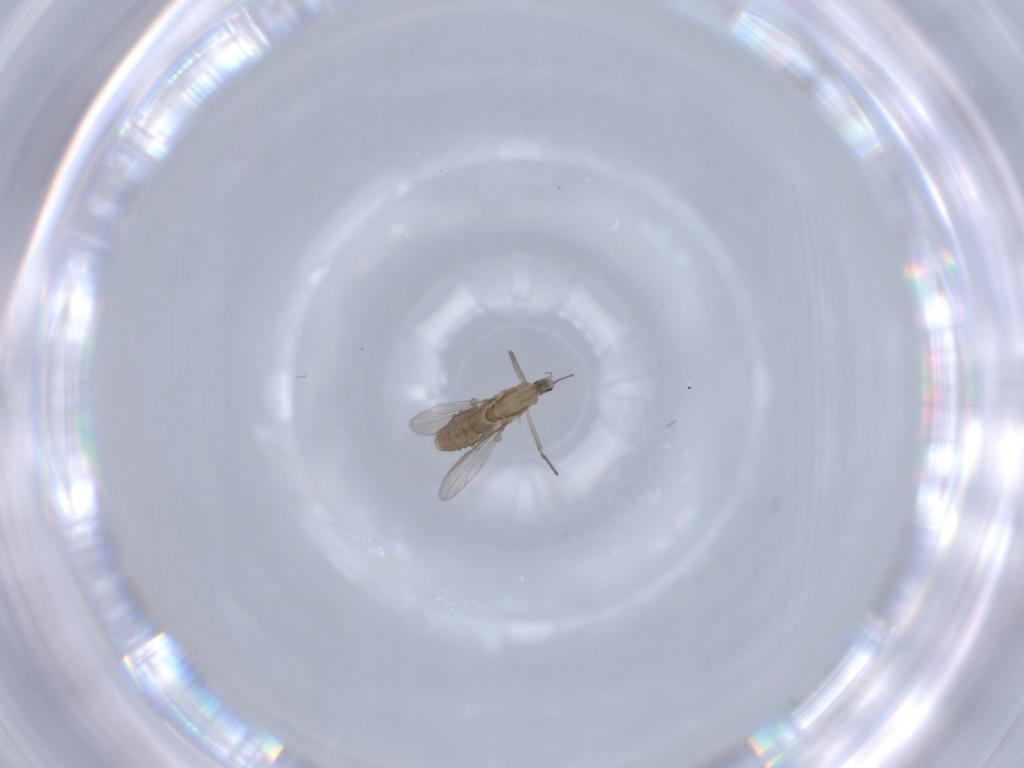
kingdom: Animalia
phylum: Arthropoda
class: Insecta
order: Diptera
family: Chironomidae
